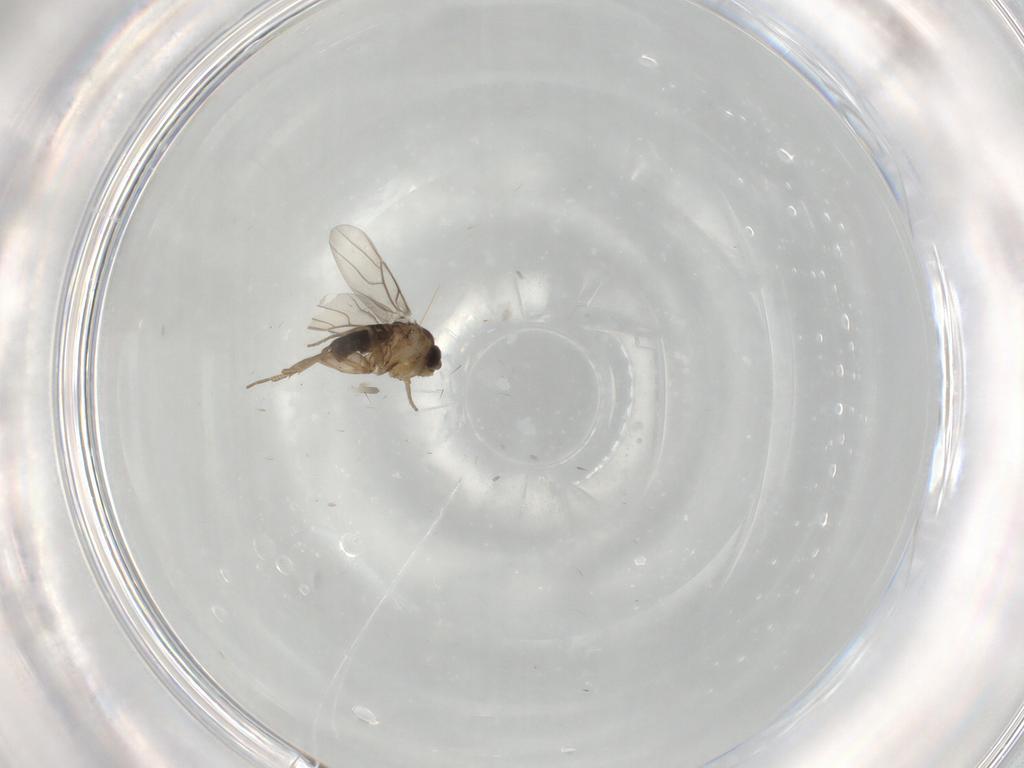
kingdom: Animalia
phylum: Arthropoda
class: Insecta
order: Diptera
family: Phoridae
